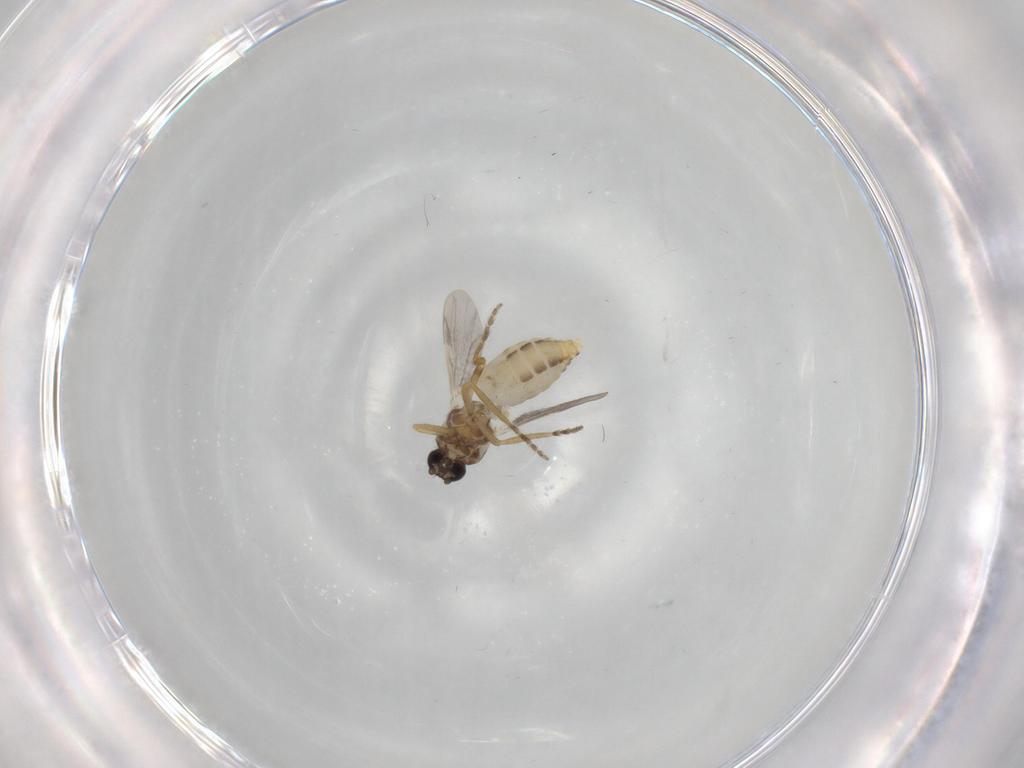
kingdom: Animalia
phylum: Arthropoda
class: Insecta
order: Diptera
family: Ceratopogonidae
